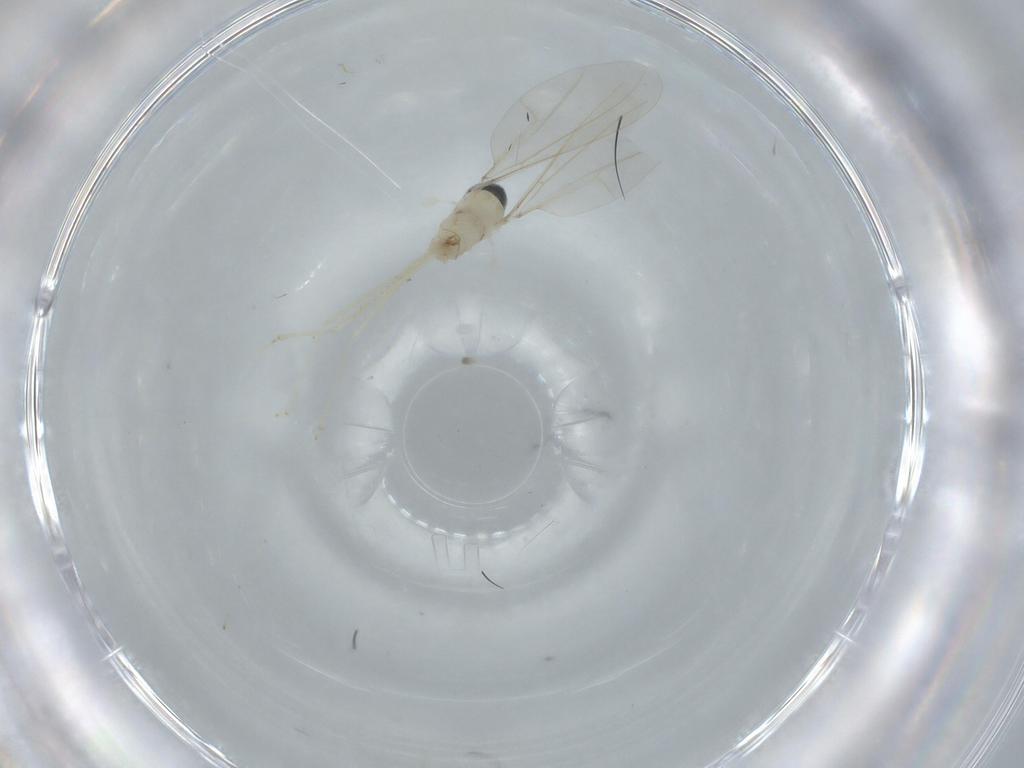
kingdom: Animalia
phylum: Arthropoda
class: Insecta
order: Diptera
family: Cecidomyiidae
